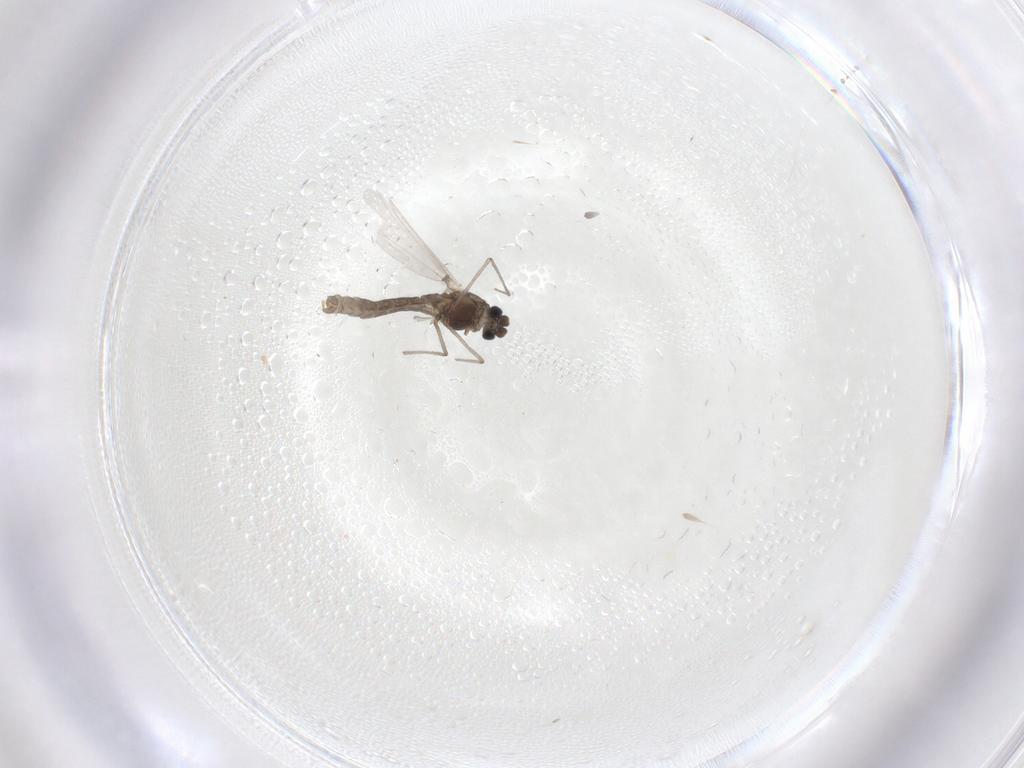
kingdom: Animalia
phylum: Arthropoda
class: Insecta
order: Diptera
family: Chironomidae
